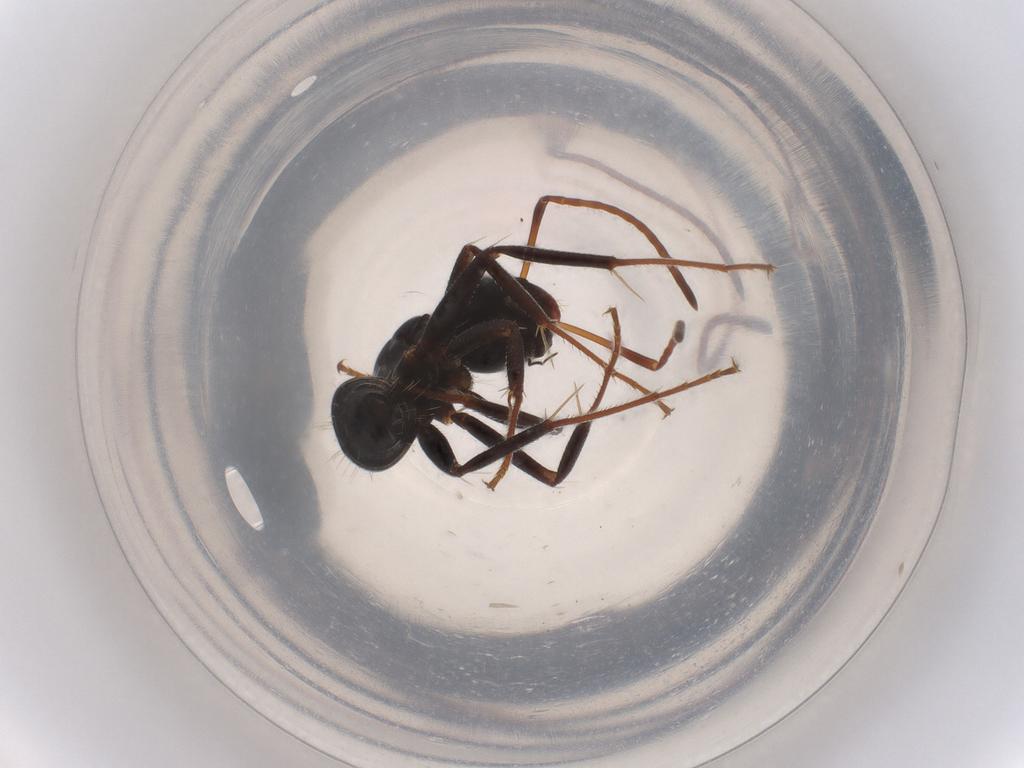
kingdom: Animalia
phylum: Arthropoda
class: Insecta
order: Hymenoptera
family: Formicidae
